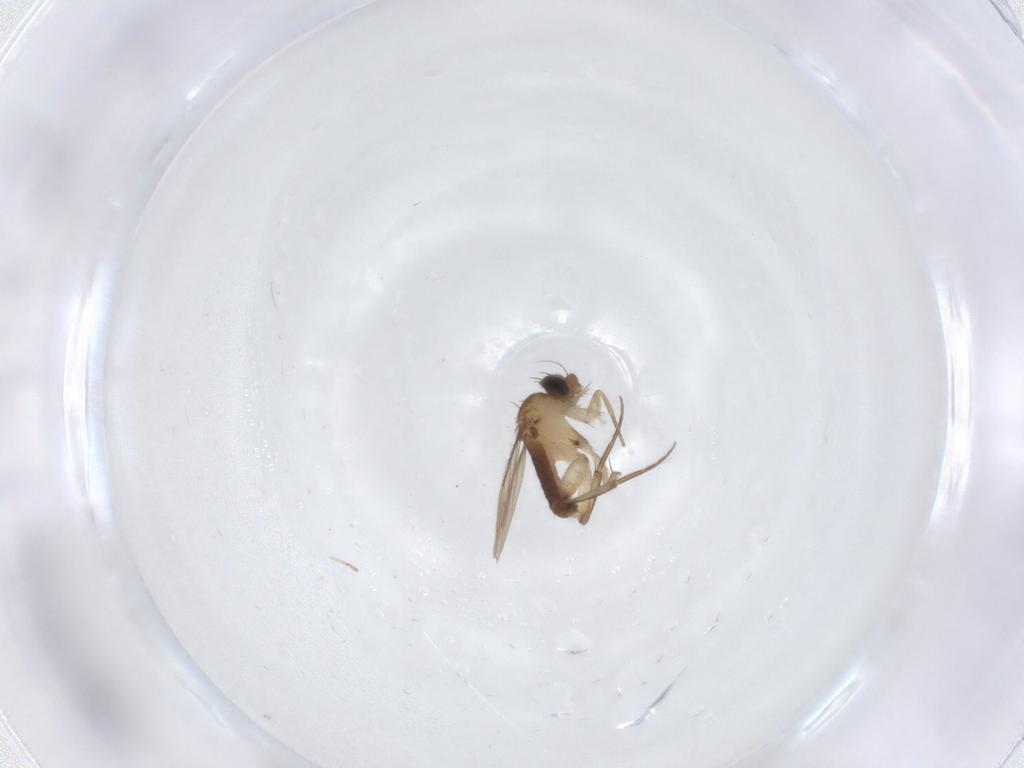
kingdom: Animalia
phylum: Arthropoda
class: Insecta
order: Diptera
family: Phoridae
